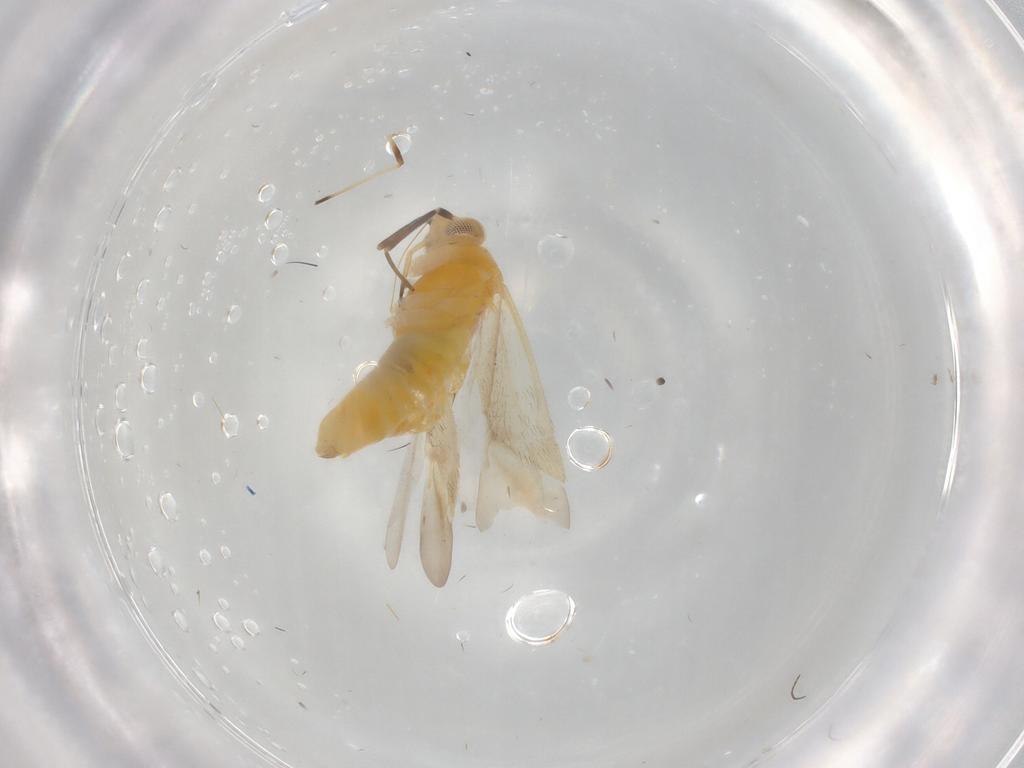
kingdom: Animalia
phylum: Arthropoda
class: Insecta
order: Hemiptera
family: Miridae
